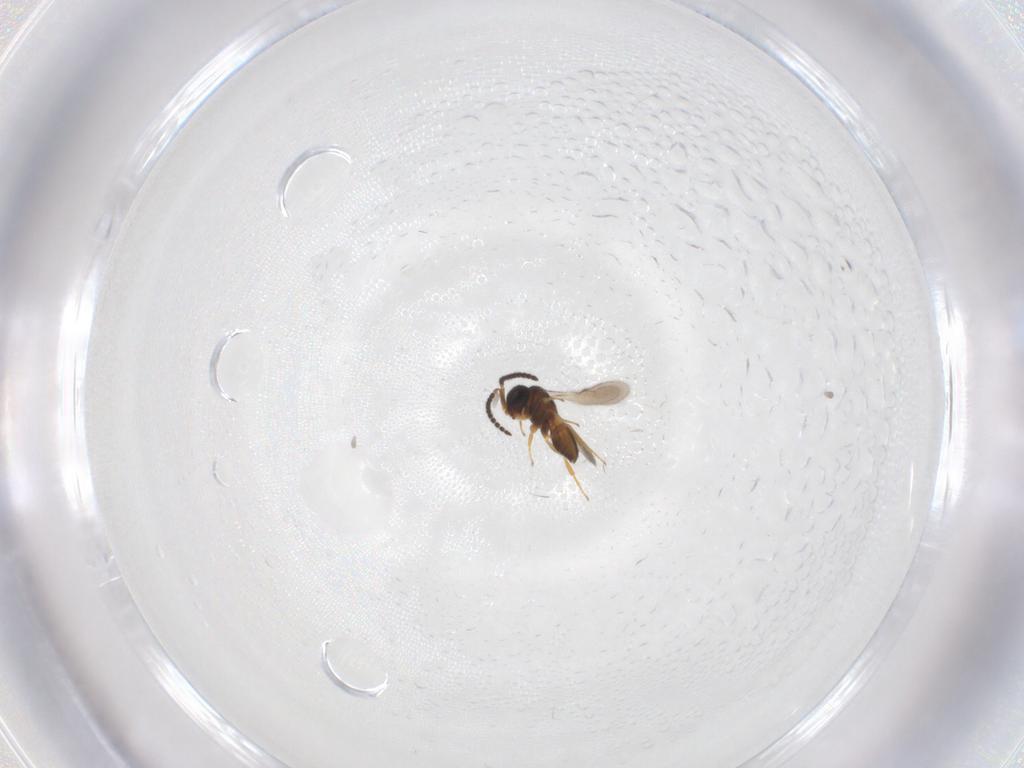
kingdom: Animalia
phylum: Arthropoda
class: Insecta
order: Hymenoptera
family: Scelionidae
